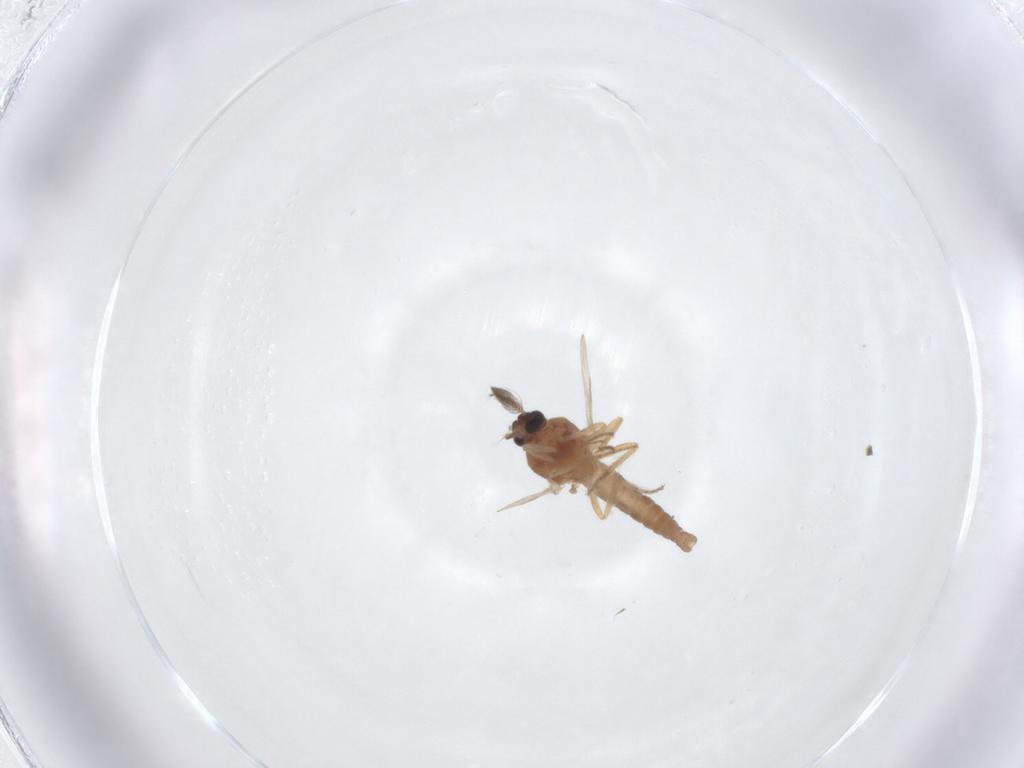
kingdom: Animalia
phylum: Arthropoda
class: Insecta
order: Diptera
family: Ceratopogonidae
